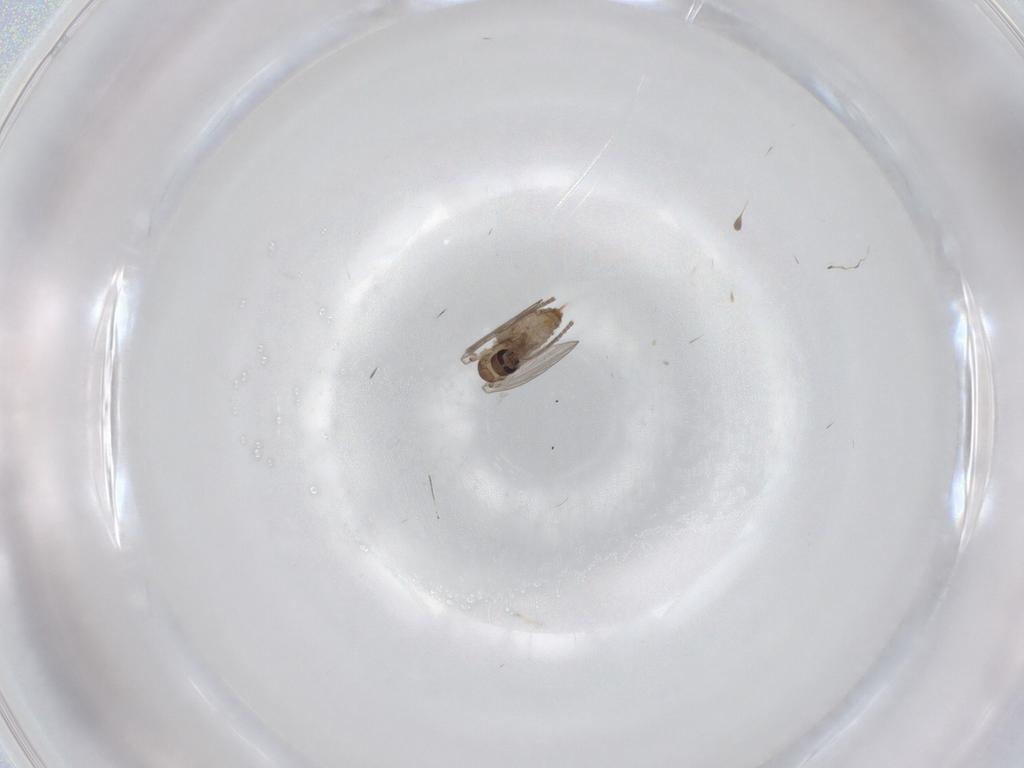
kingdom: Animalia
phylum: Arthropoda
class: Insecta
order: Diptera
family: Psychodidae
